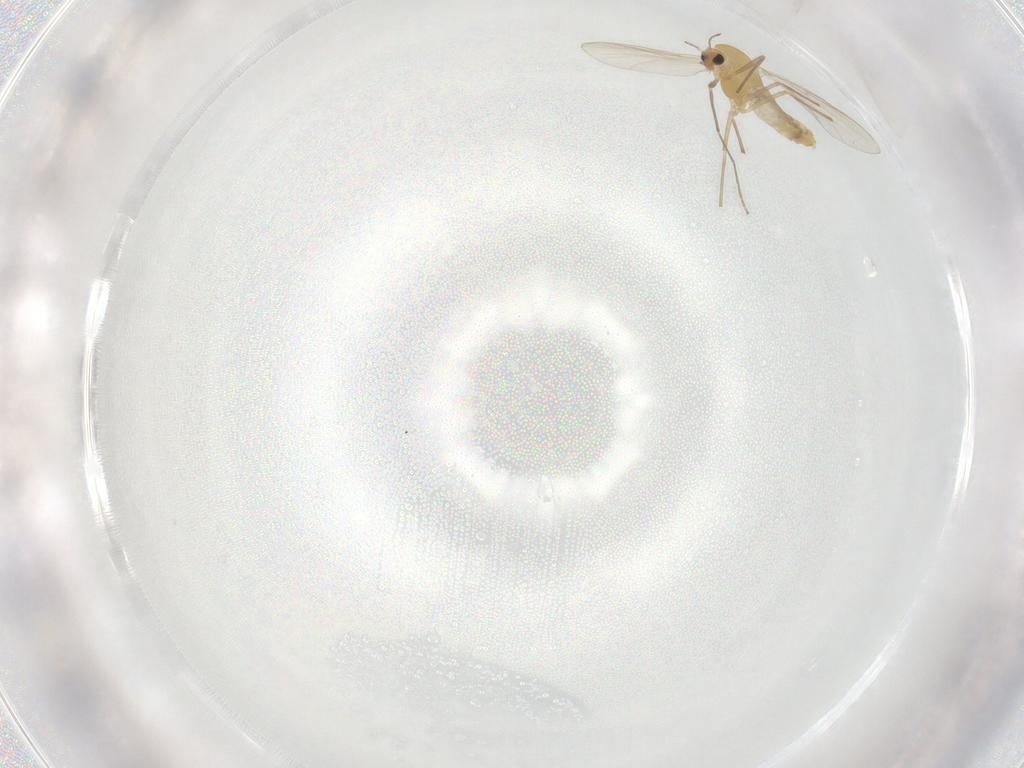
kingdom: Animalia
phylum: Arthropoda
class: Insecta
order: Diptera
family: Chironomidae
